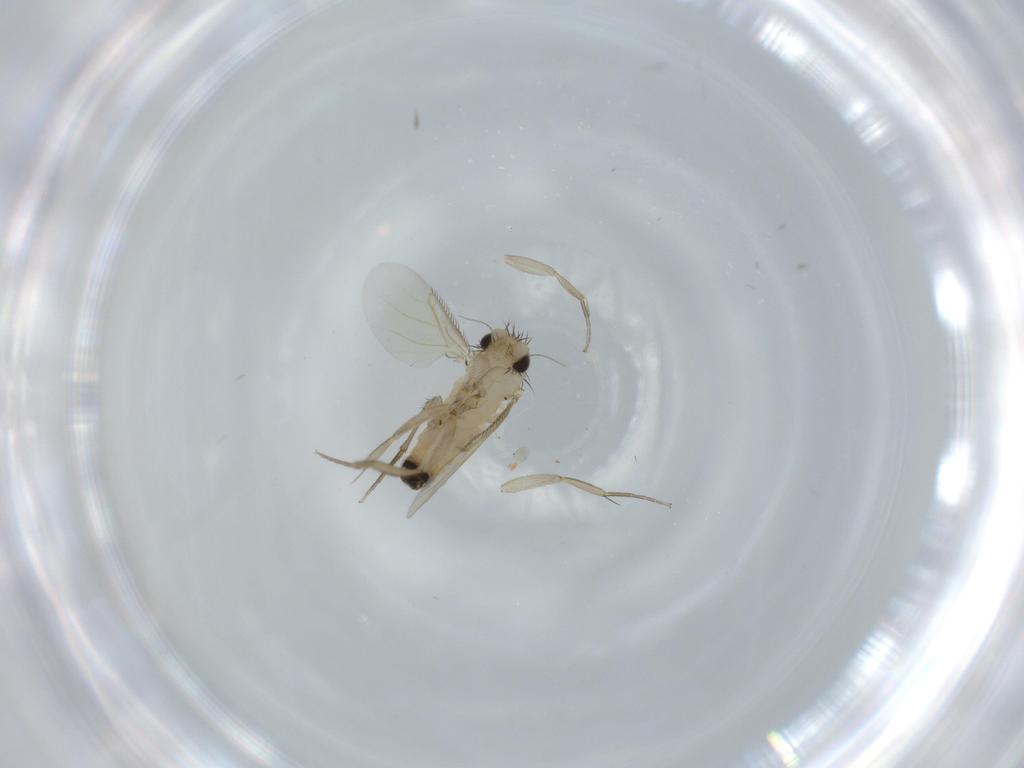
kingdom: Animalia
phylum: Arthropoda
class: Insecta
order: Diptera
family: Phoridae
